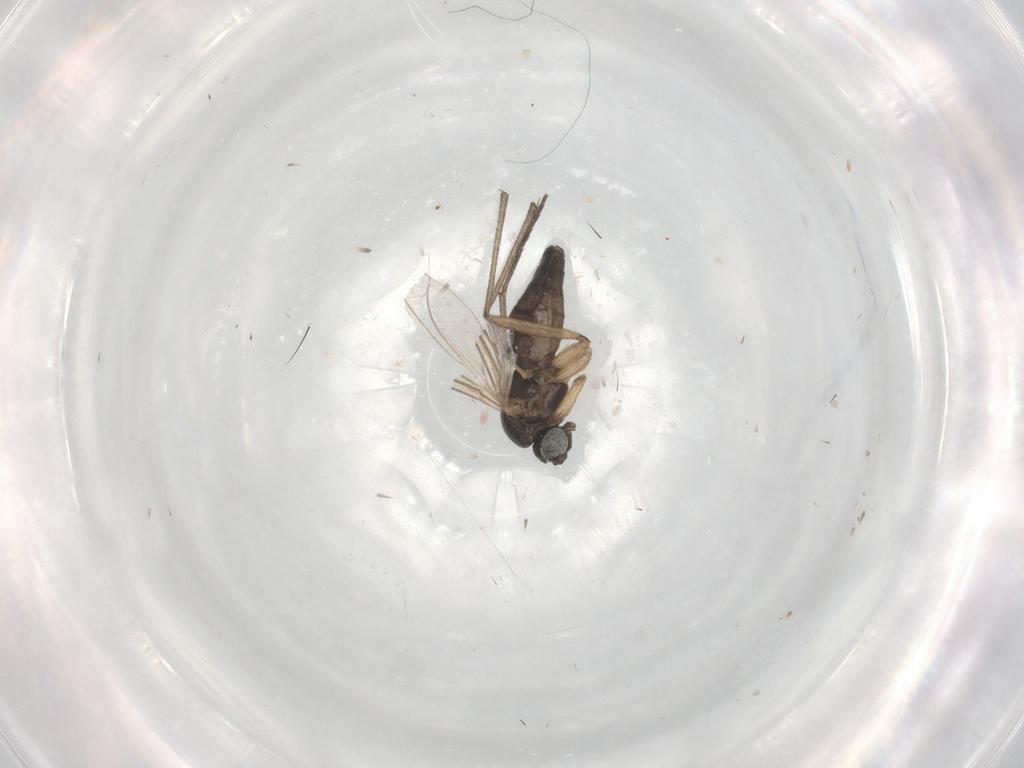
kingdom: Animalia
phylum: Arthropoda
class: Insecta
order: Diptera
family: Sciaridae
